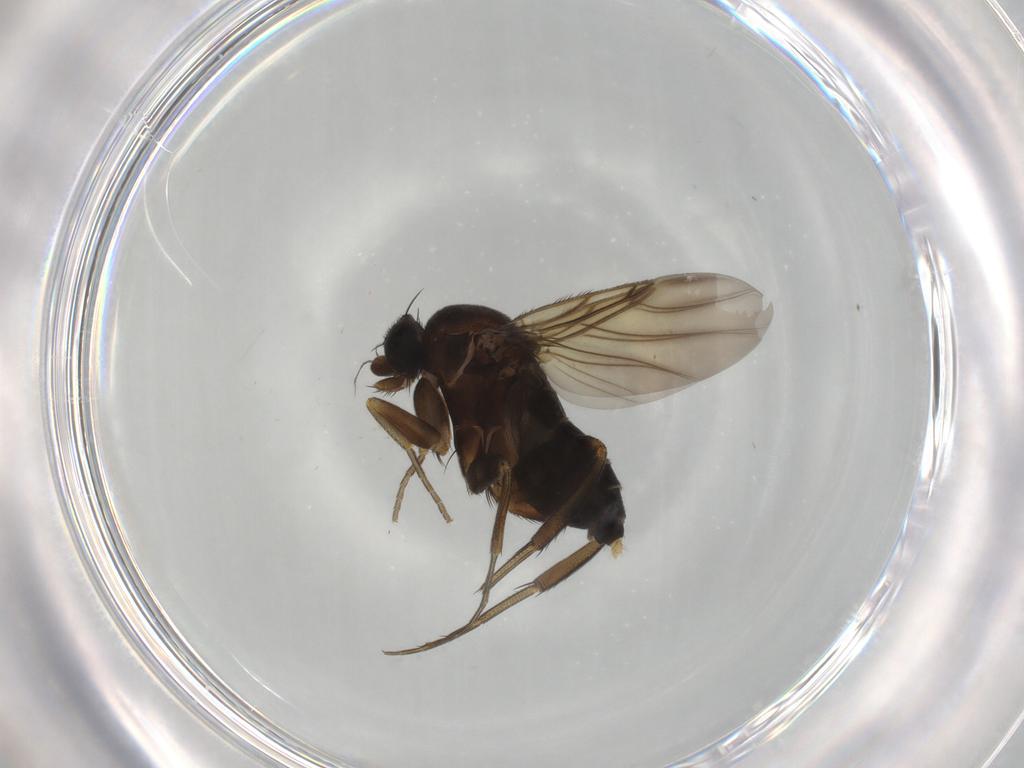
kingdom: Animalia
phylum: Arthropoda
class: Insecta
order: Diptera
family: Phoridae
